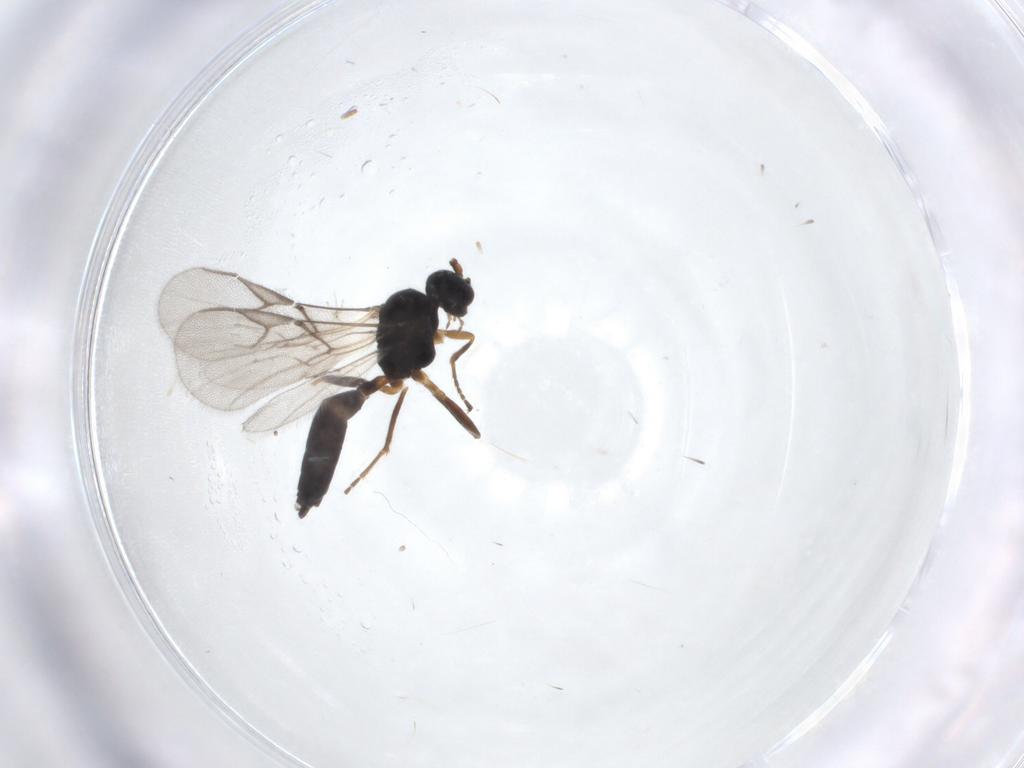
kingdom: Animalia
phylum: Arthropoda
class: Insecta
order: Hymenoptera
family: Braconidae
